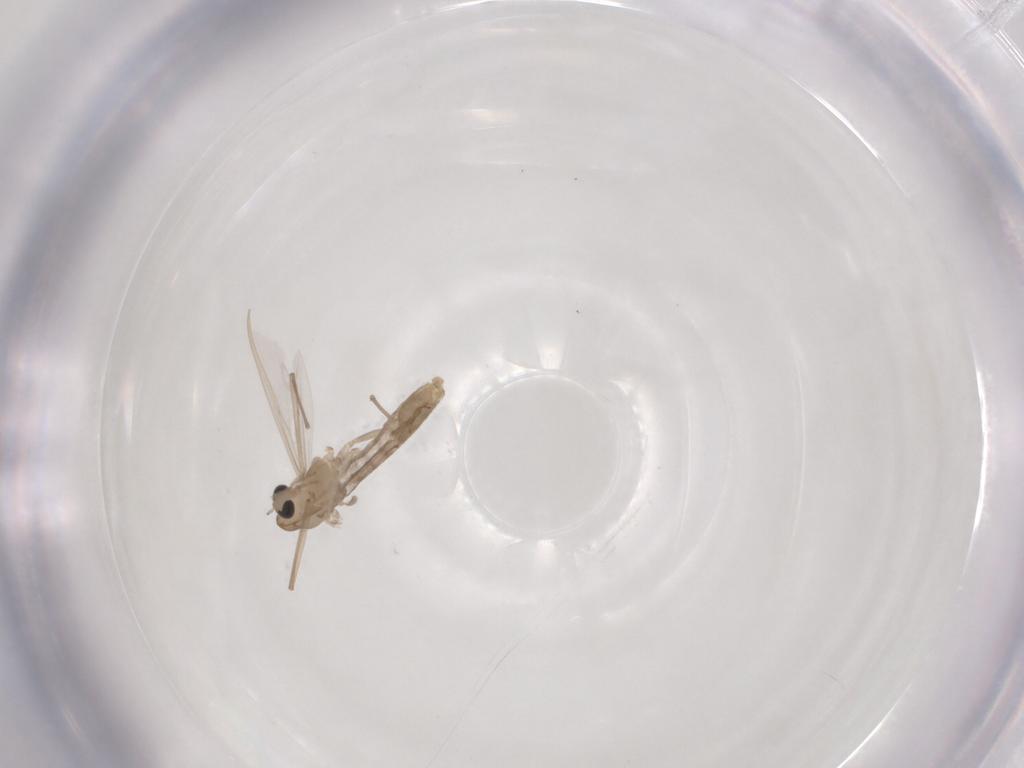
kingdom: Animalia
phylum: Arthropoda
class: Insecta
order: Diptera
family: Chironomidae
